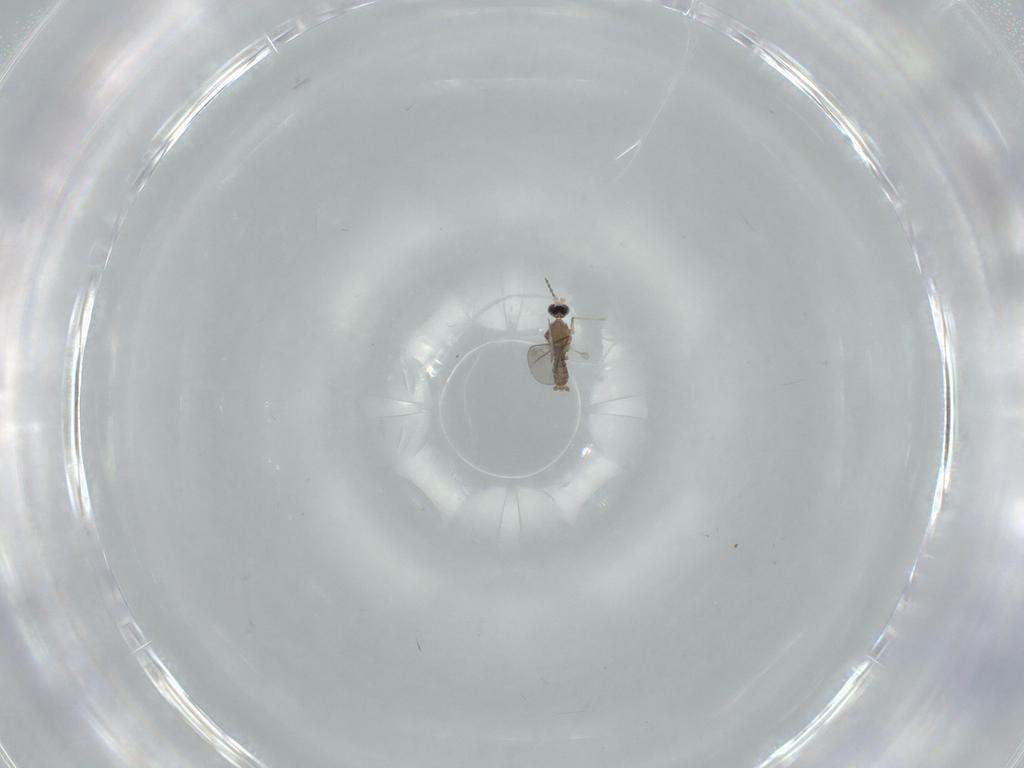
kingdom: Animalia
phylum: Arthropoda
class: Insecta
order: Diptera
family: Cecidomyiidae
